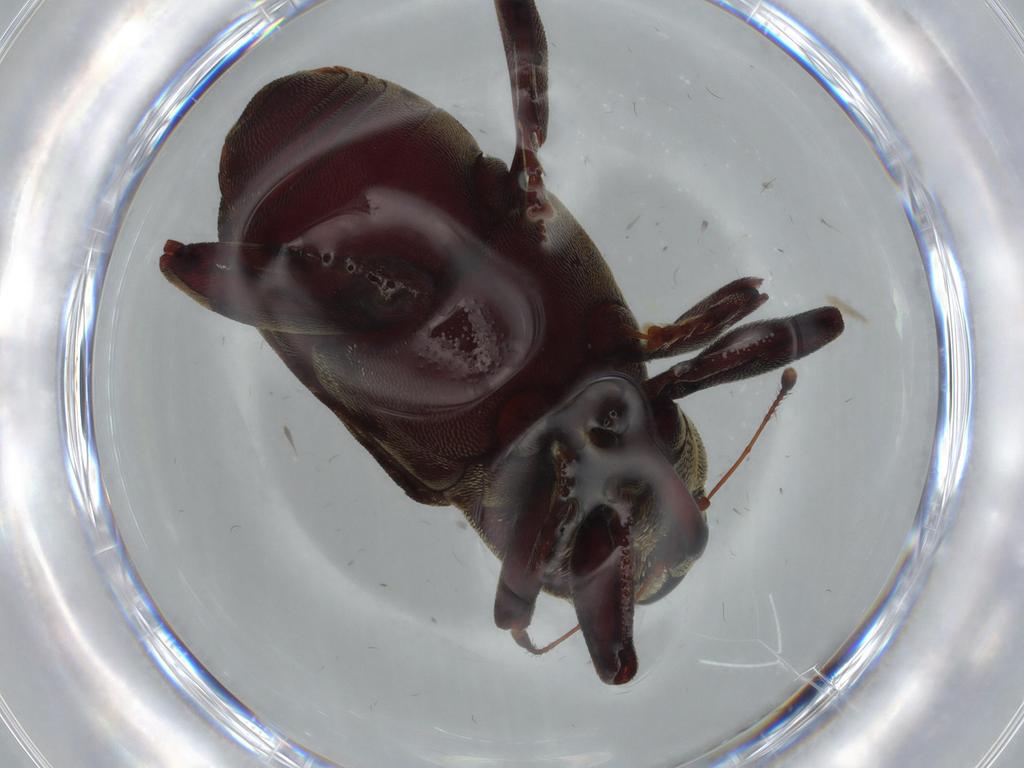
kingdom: Animalia
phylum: Arthropoda
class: Insecta
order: Coleoptera
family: Curculionidae
